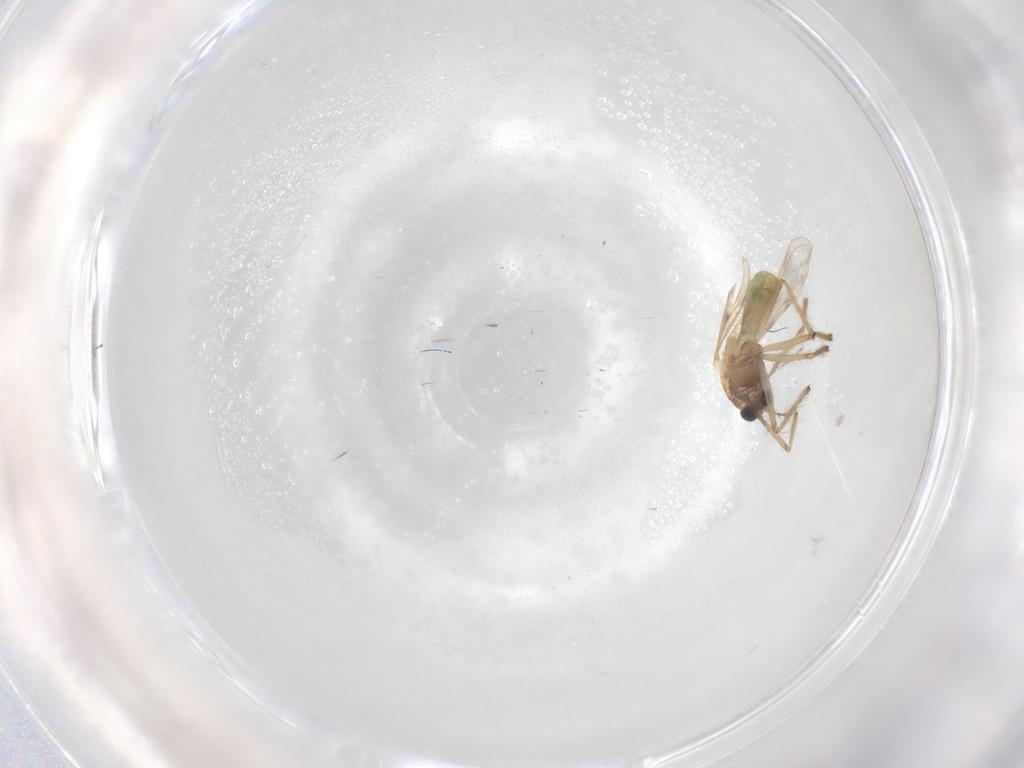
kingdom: Animalia
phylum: Arthropoda
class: Insecta
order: Diptera
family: Chironomidae
